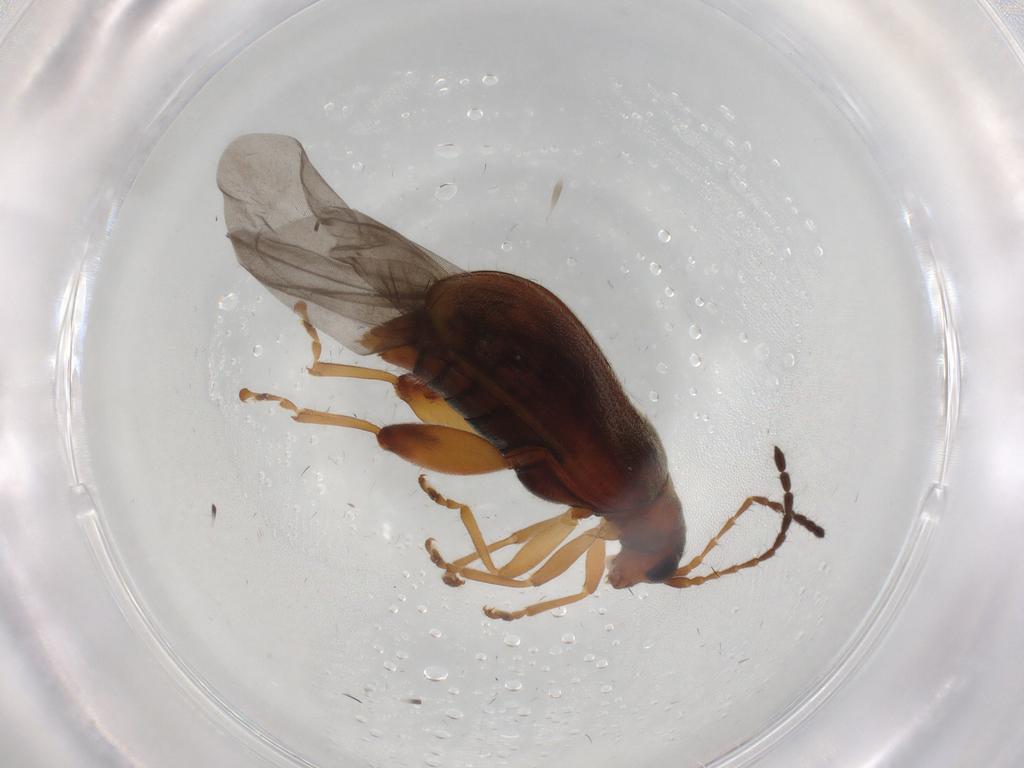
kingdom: Animalia
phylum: Arthropoda
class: Insecta
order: Coleoptera
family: Chrysomelidae
